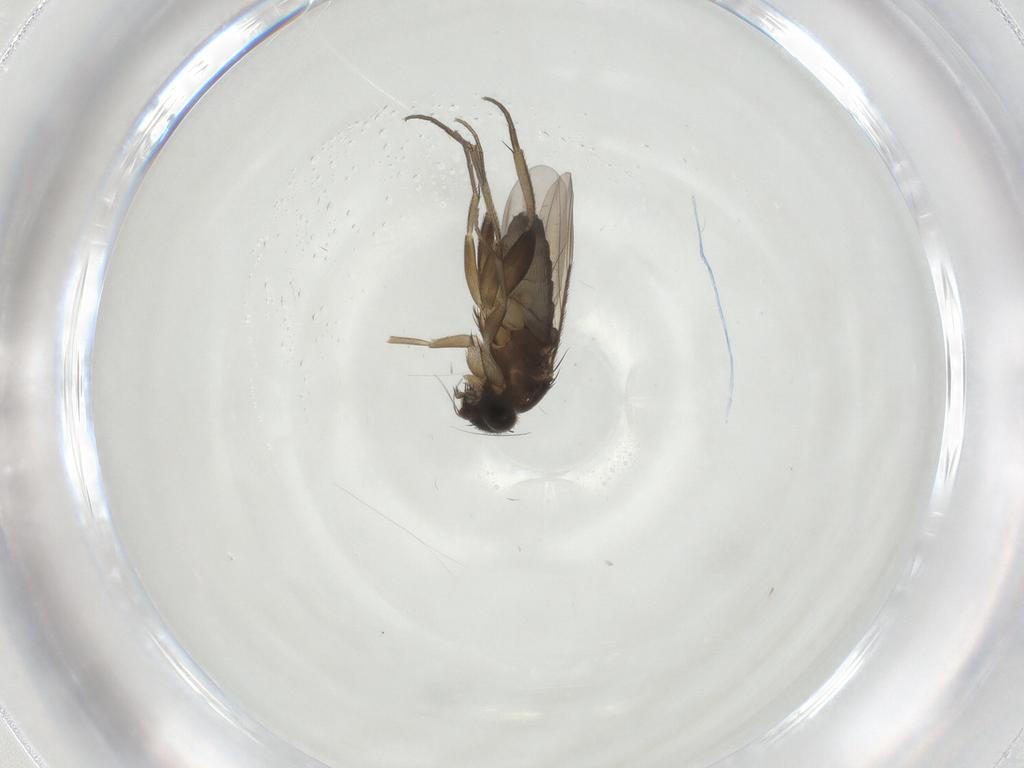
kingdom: Animalia
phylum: Arthropoda
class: Insecta
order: Diptera
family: Phoridae
